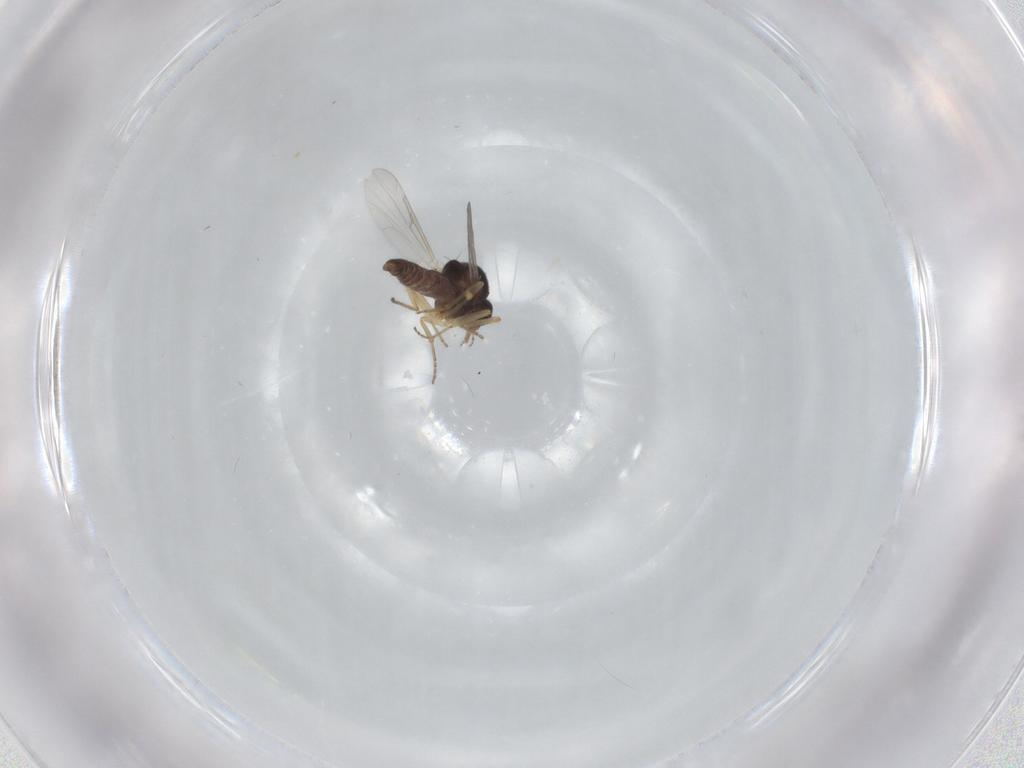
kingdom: Animalia
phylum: Arthropoda
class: Insecta
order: Diptera
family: Ceratopogonidae
